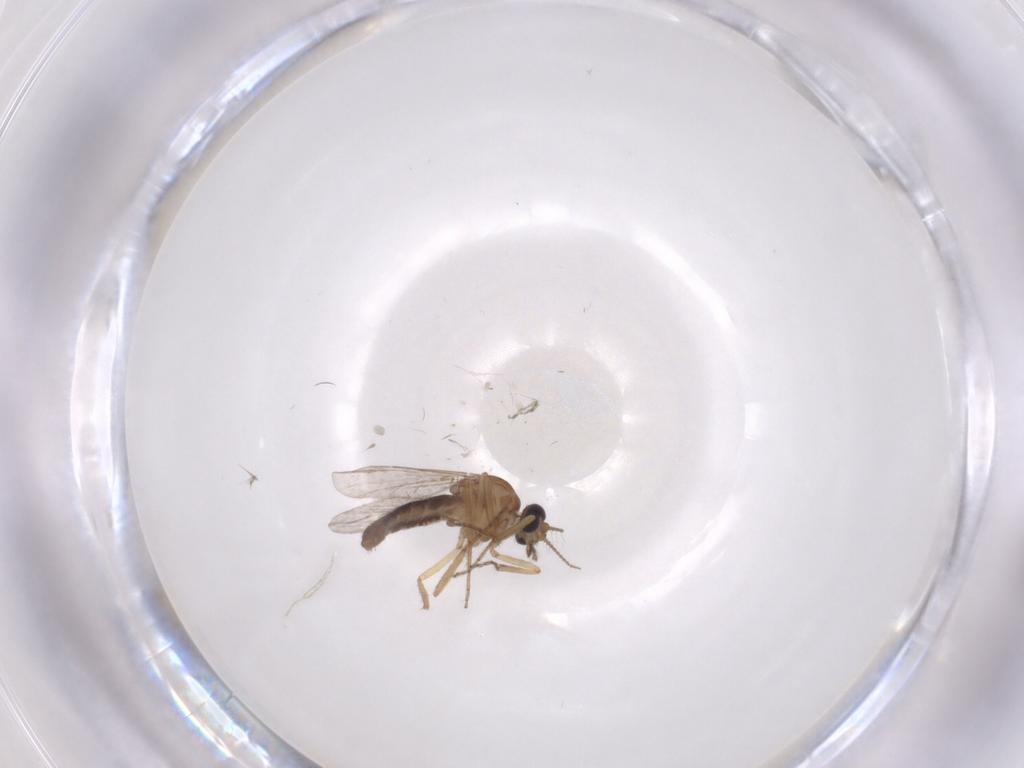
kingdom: Animalia
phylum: Arthropoda
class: Insecta
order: Diptera
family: Ceratopogonidae
